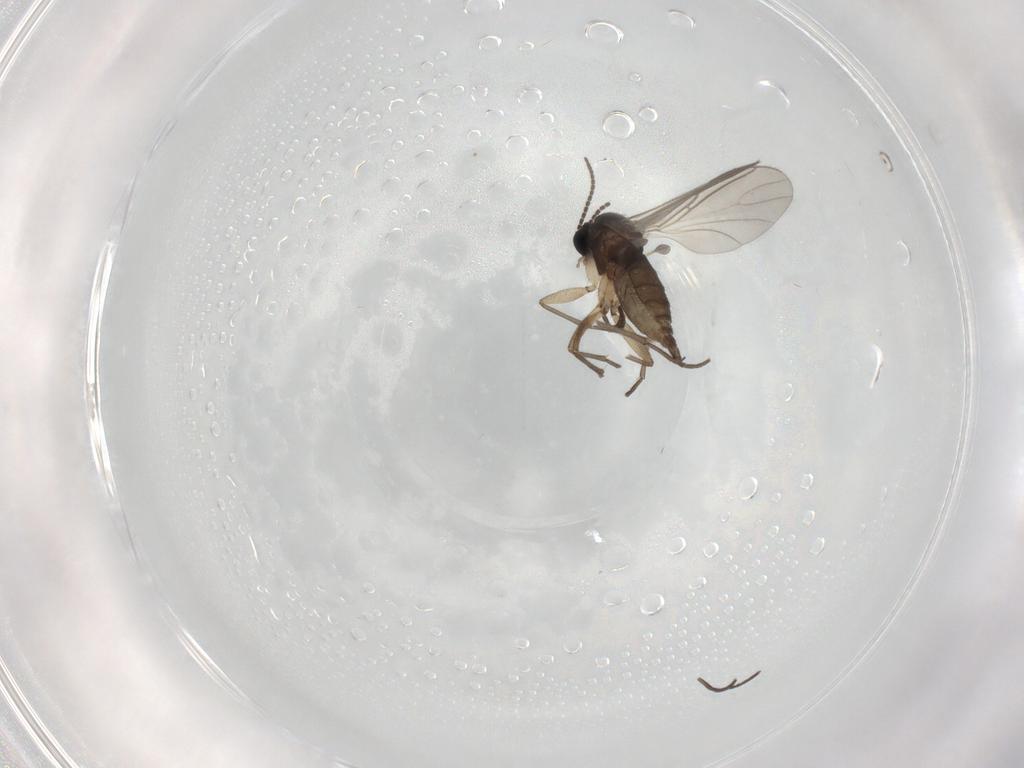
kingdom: Animalia
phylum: Arthropoda
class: Insecta
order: Diptera
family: Sciaridae
